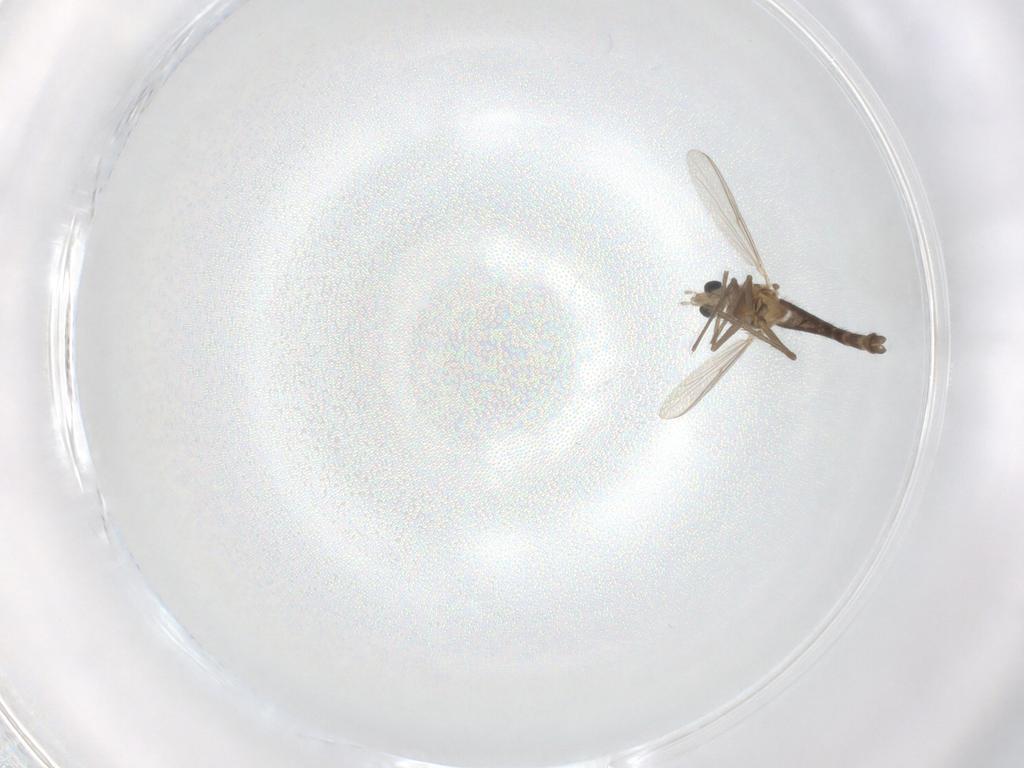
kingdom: Animalia
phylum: Arthropoda
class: Insecta
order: Diptera
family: Chironomidae
